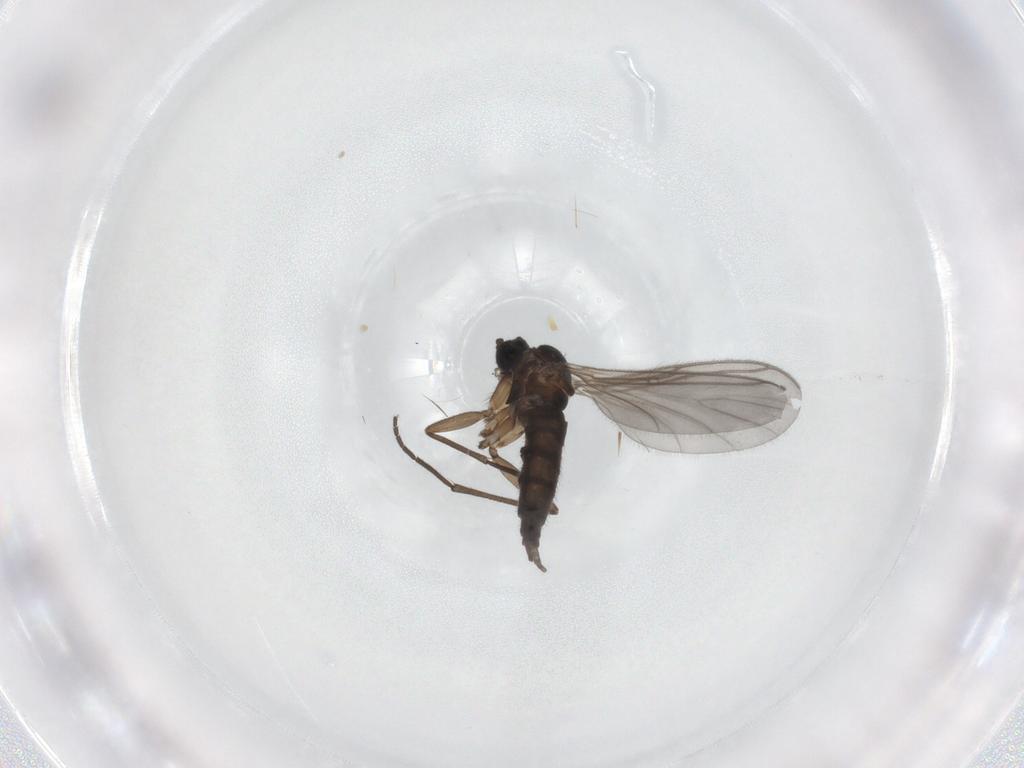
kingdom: Animalia
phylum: Arthropoda
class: Insecta
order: Diptera
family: Sciaridae
